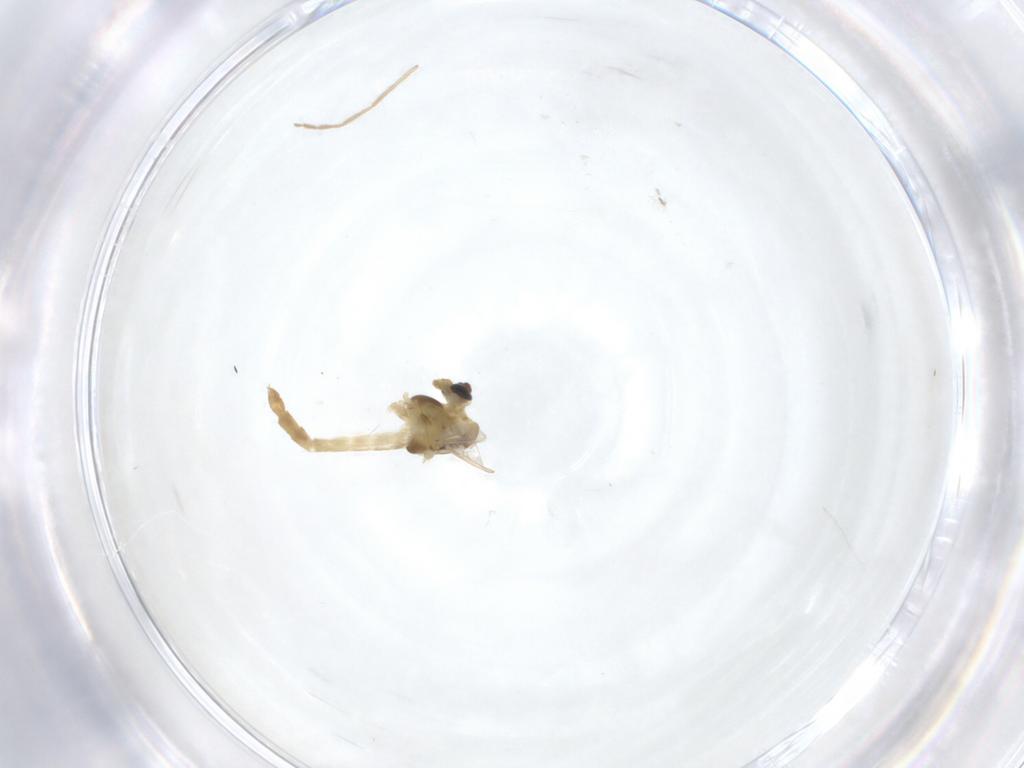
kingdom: Animalia
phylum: Arthropoda
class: Insecta
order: Diptera
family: Chironomidae
